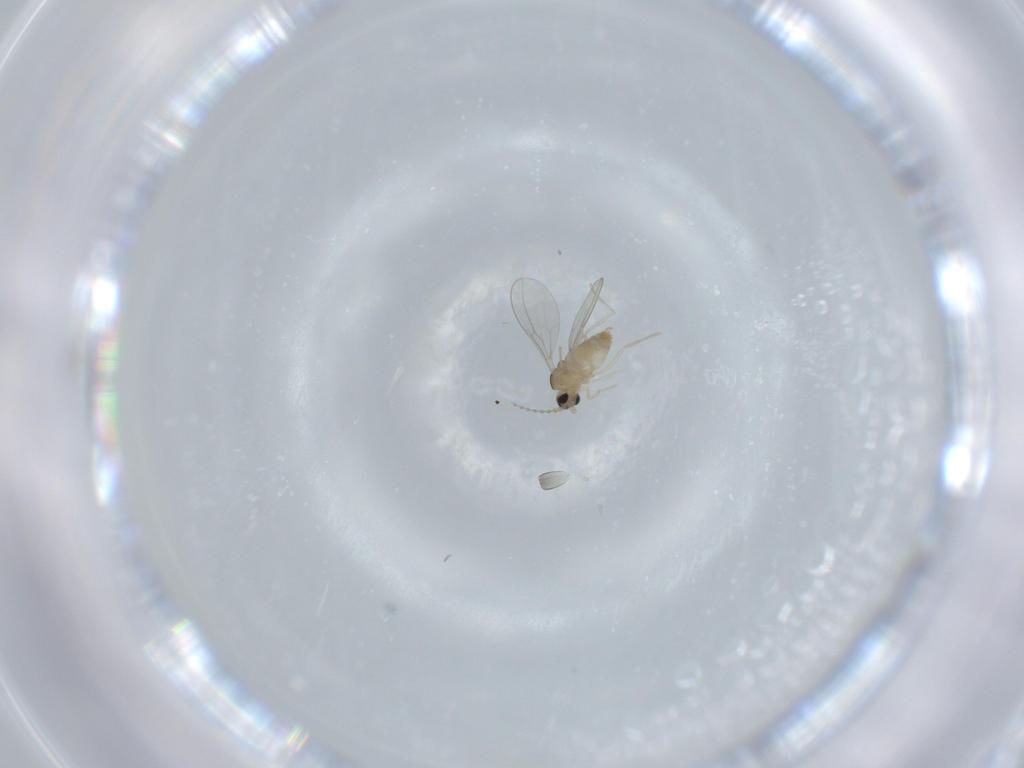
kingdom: Animalia
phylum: Arthropoda
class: Insecta
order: Diptera
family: Cecidomyiidae
